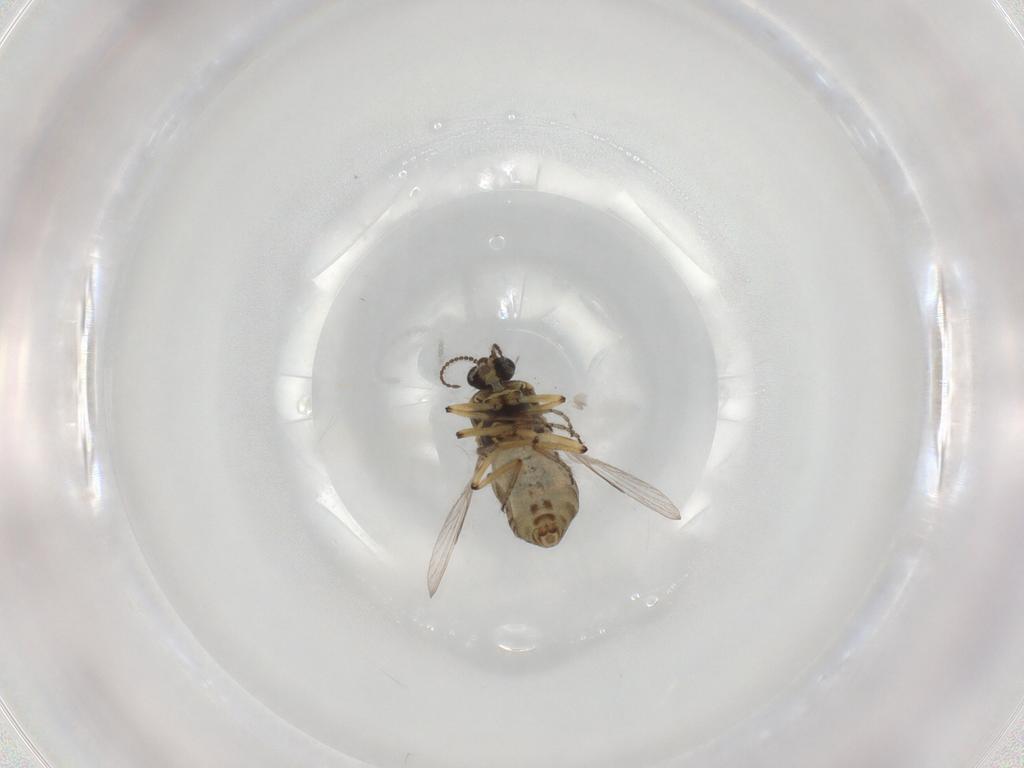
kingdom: Animalia
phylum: Arthropoda
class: Insecta
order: Diptera
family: Ceratopogonidae
